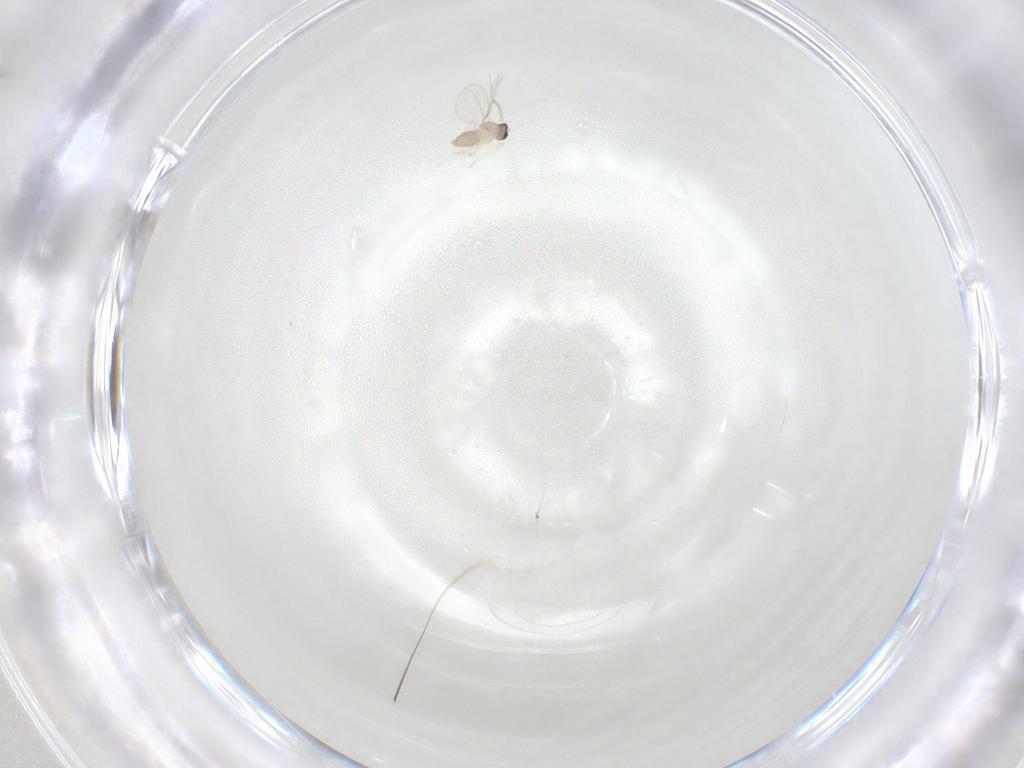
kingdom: Animalia
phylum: Arthropoda
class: Insecta
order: Diptera
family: Cecidomyiidae
